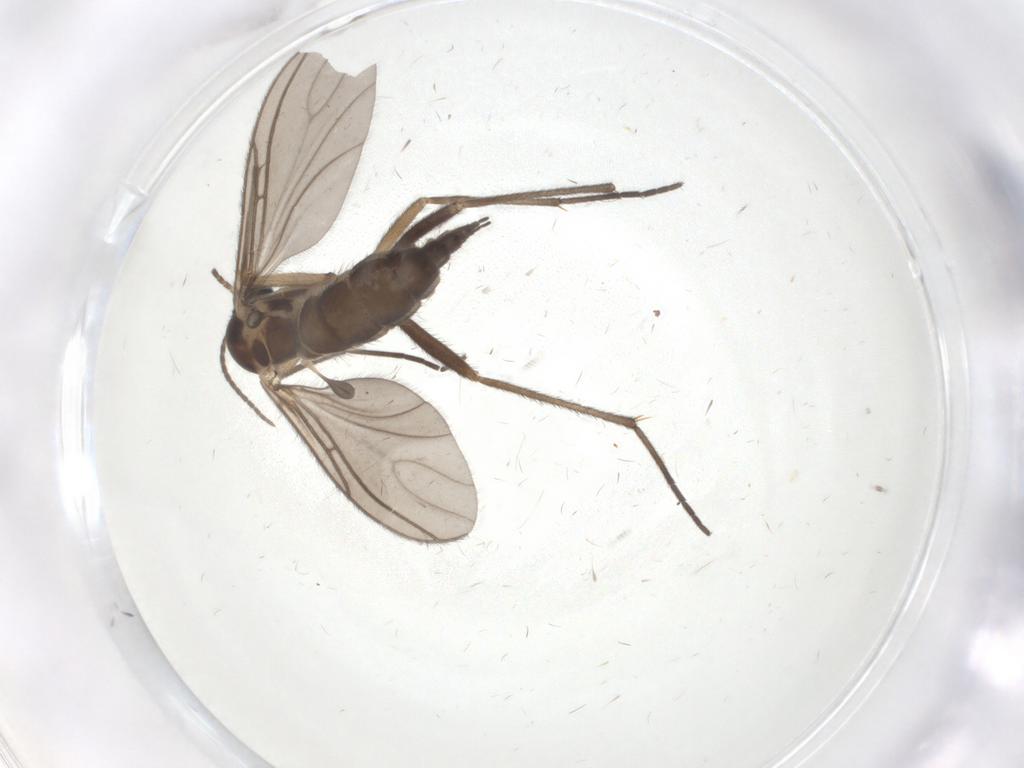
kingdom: Animalia
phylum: Arthropoda
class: Insecta
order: Diptera
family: Sciaridae
